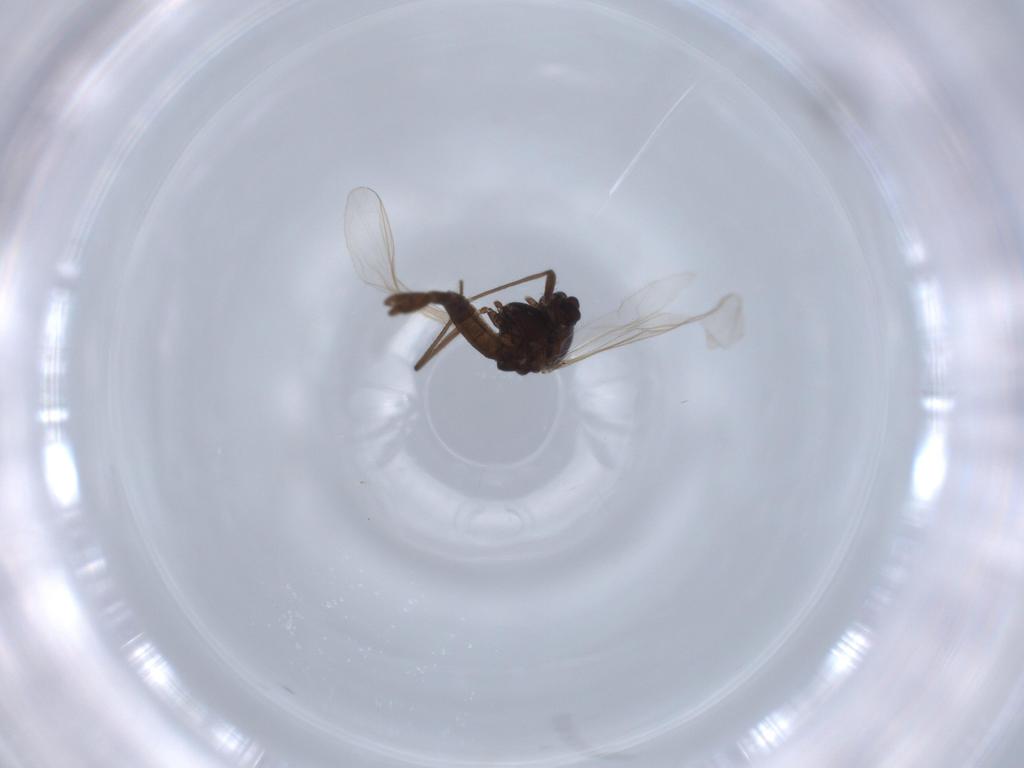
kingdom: Animalia
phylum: Arthropoda
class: Insecta
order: Diptera
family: Chironomidae
